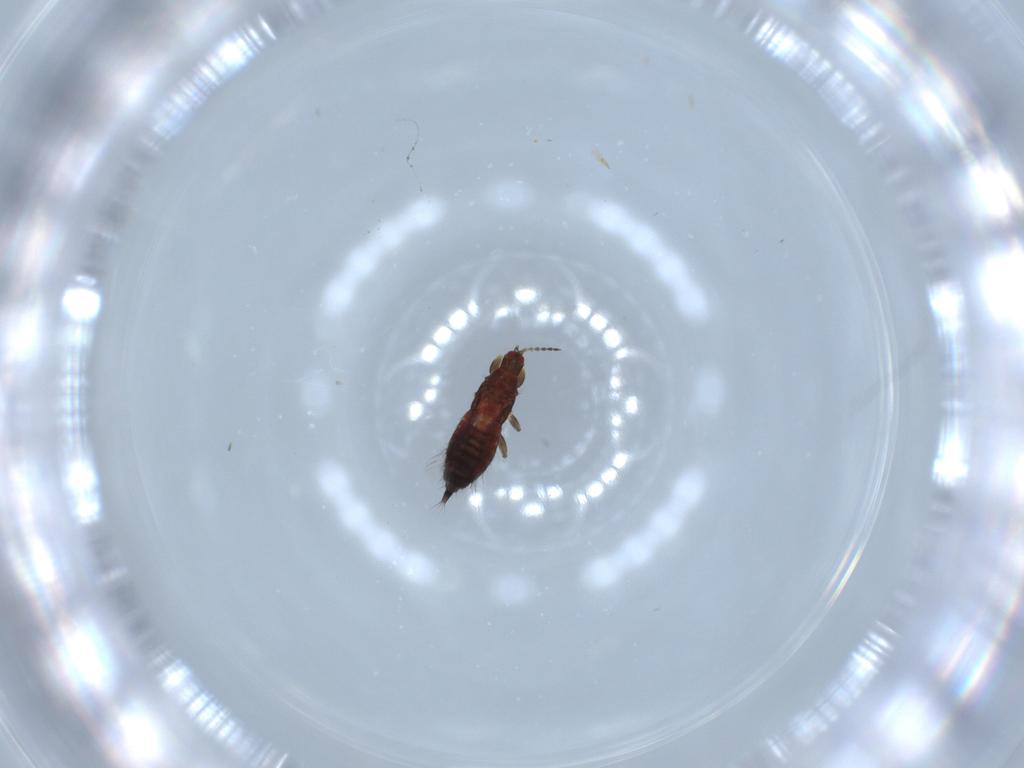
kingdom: Animalia
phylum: Arthropoda
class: Insecta
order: Thysanoptera
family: Phlaeothripidae
